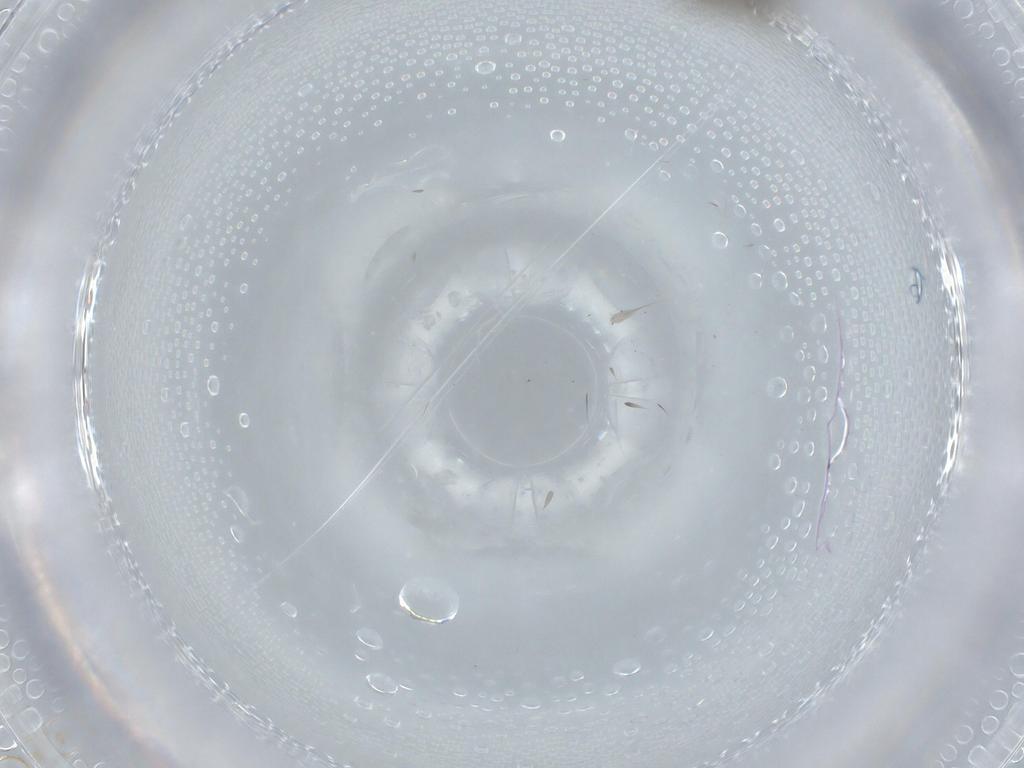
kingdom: Animalia
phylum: Arthropoda
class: Insecta
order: Diptera
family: Cecidomyiidae
